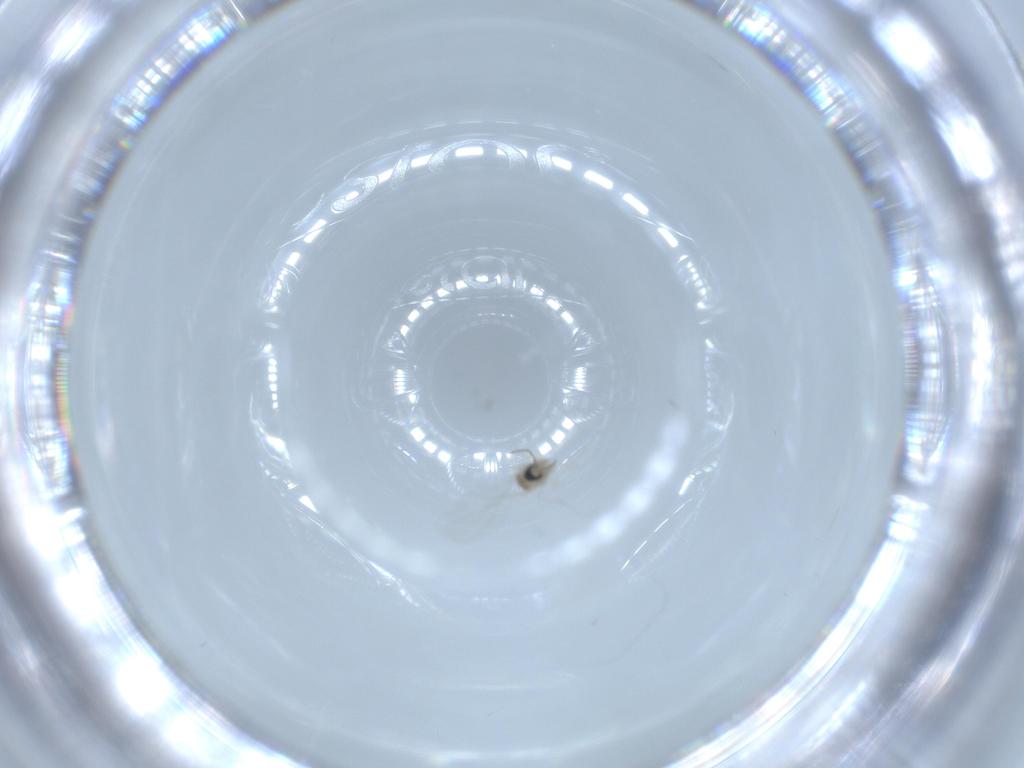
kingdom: Animalia
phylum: Arthropoda
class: Insecta
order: Diptera
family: Cecidomyiidae
